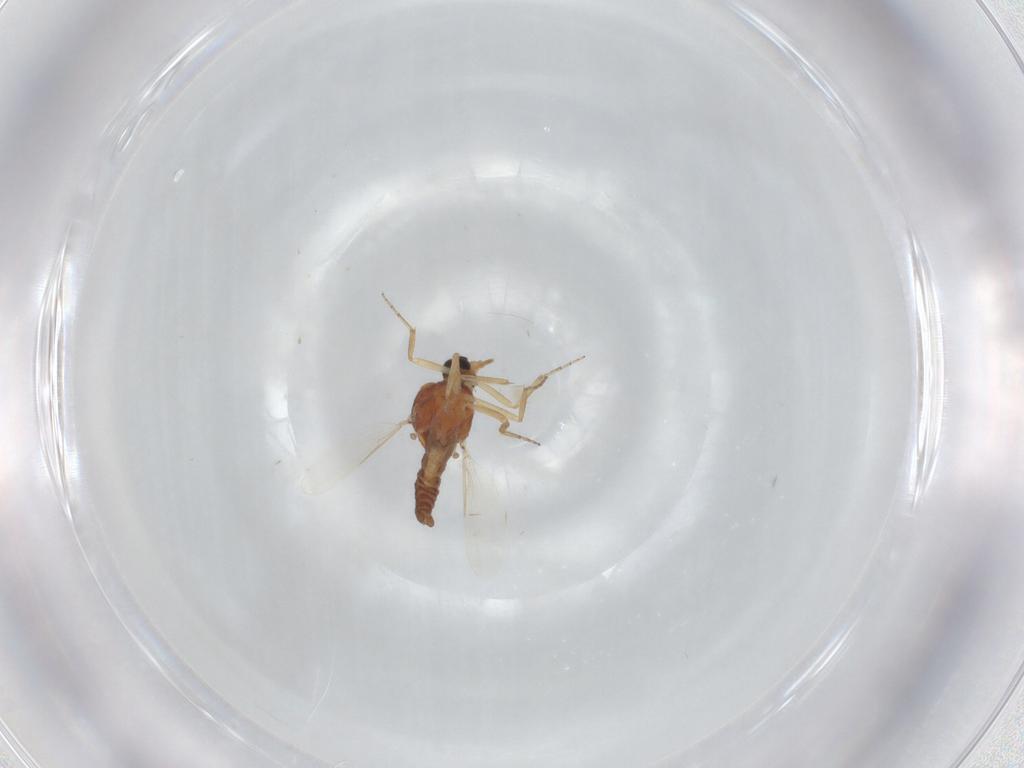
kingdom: Animalia
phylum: Arthropoda
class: Insecta
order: Diptera
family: Ceratopogonidae
